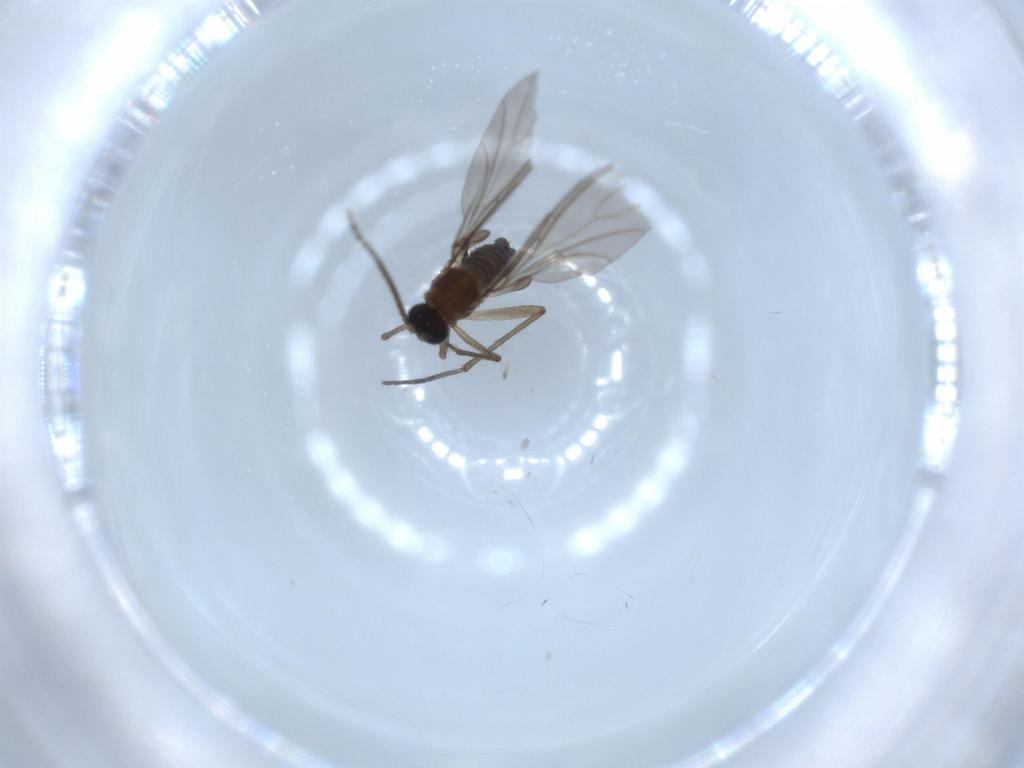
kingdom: Animalia
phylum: Arthropoda
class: Insecta
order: Diptera
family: Sciaridae
